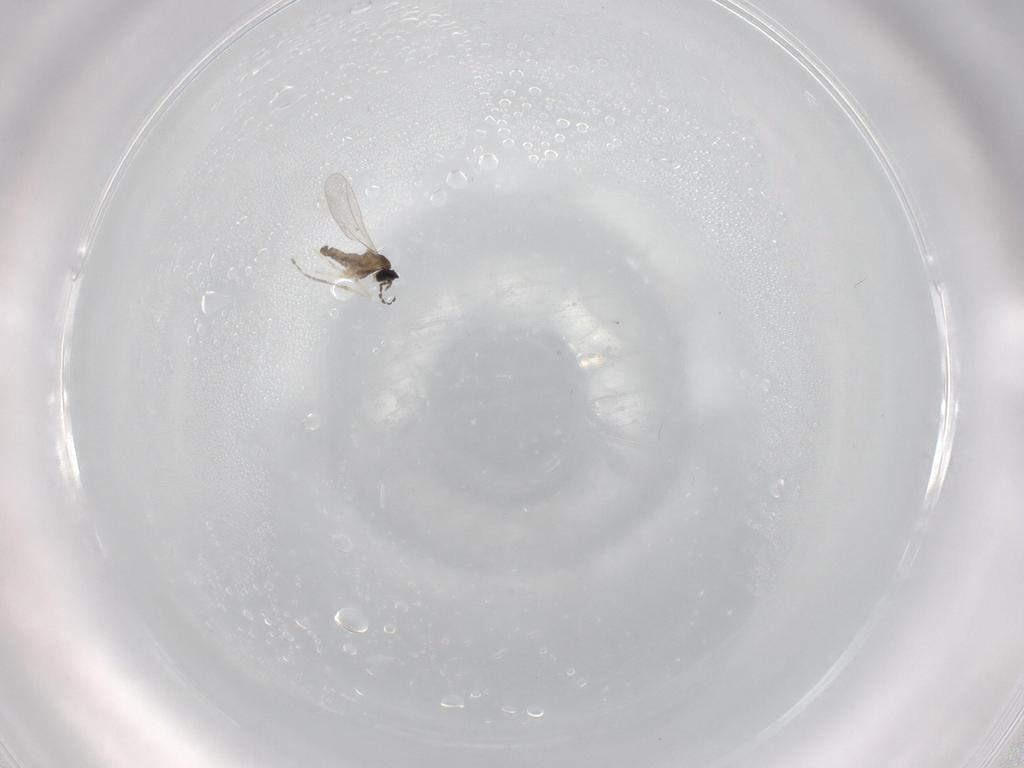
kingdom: Animalia
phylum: Arthropoda
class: Insecta
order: Diptera
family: Cecidomyiidae
